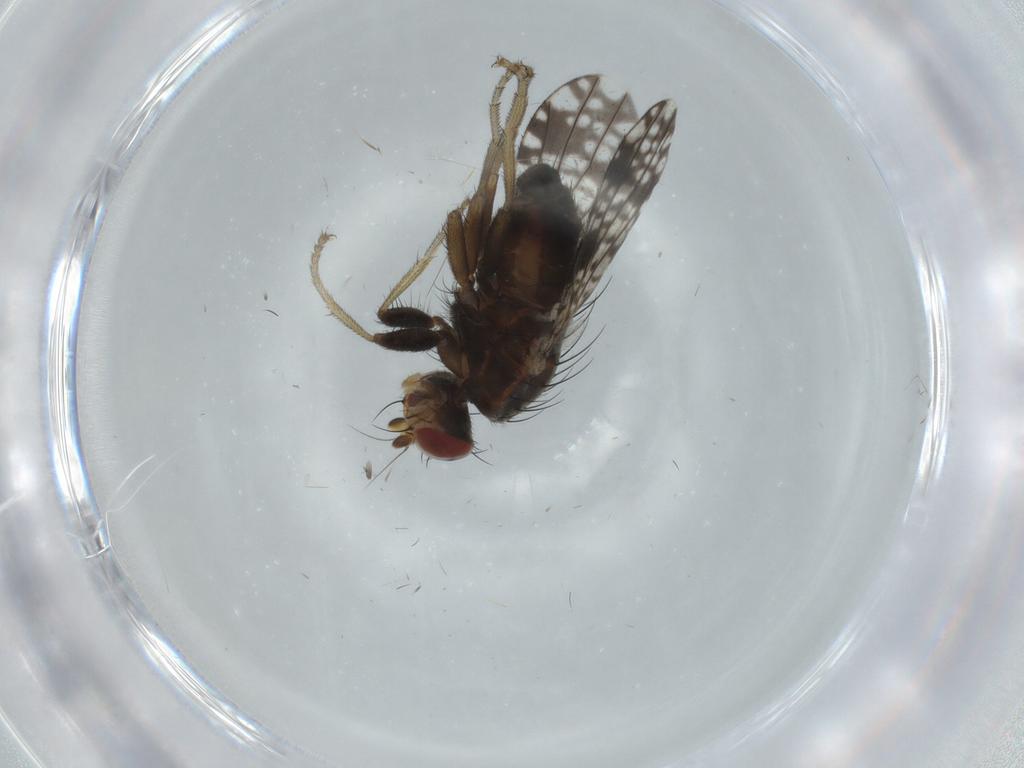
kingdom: Animalia
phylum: Arthropoda
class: Insecta
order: Diptera
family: Tephritidae
